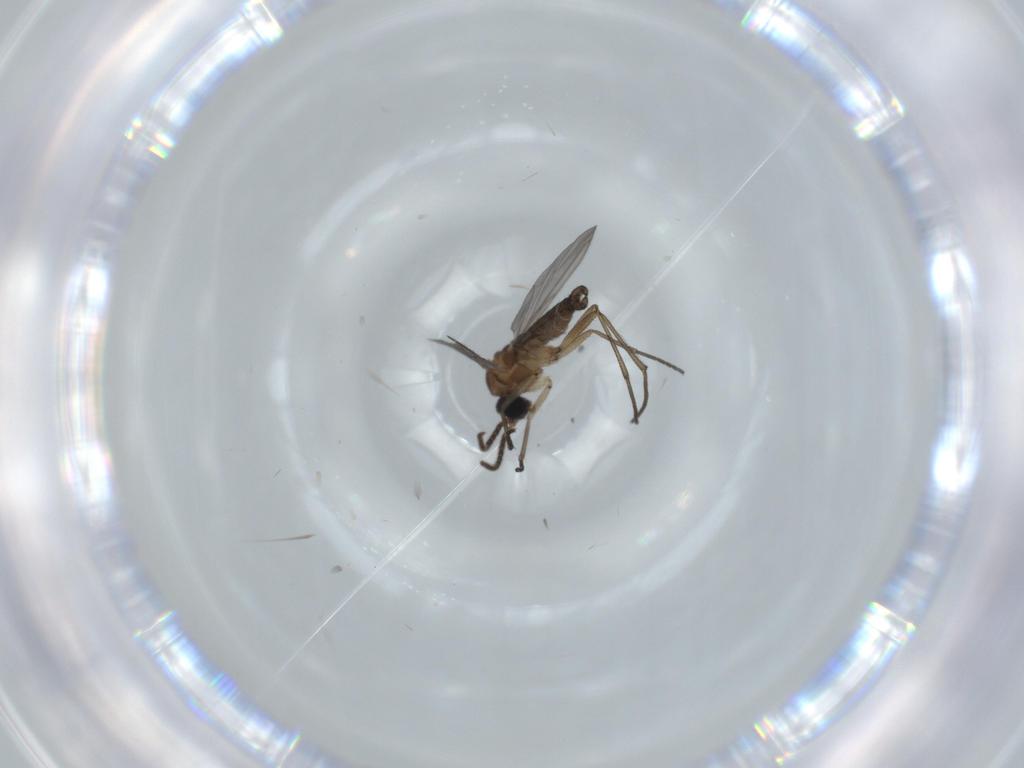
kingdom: Animalia
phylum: Arthropoda
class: Insecta
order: Diptera
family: Sciaridae
